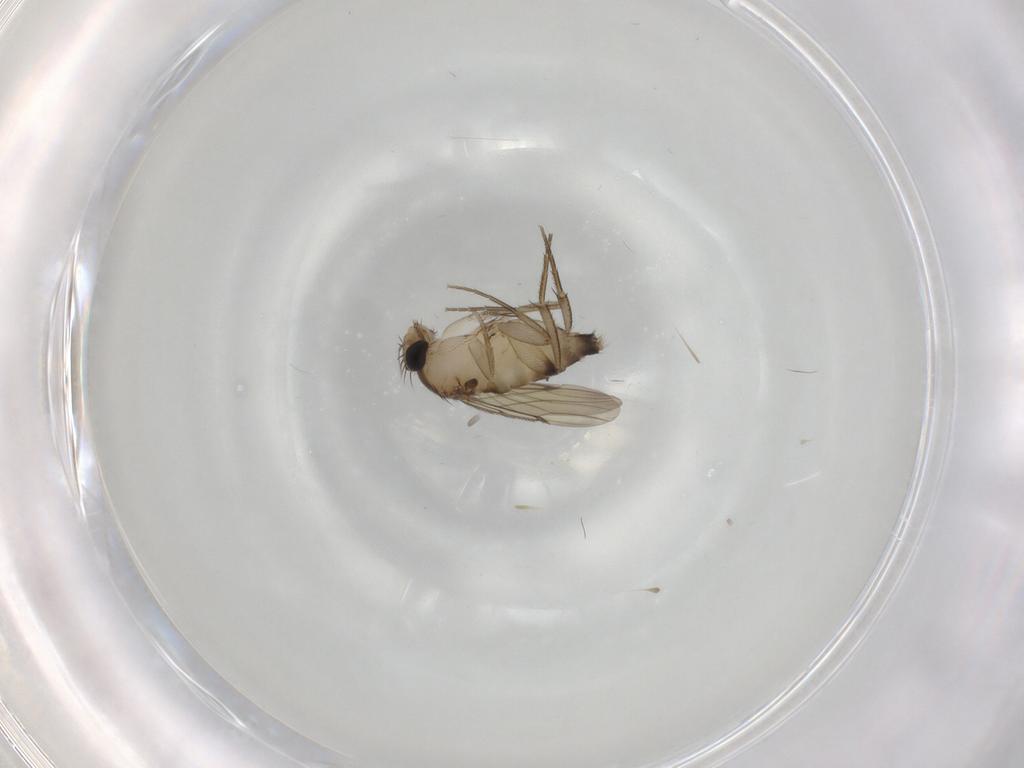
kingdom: Animalia
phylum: Arthropoda
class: Insecta
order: Diptera
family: Phoridae
